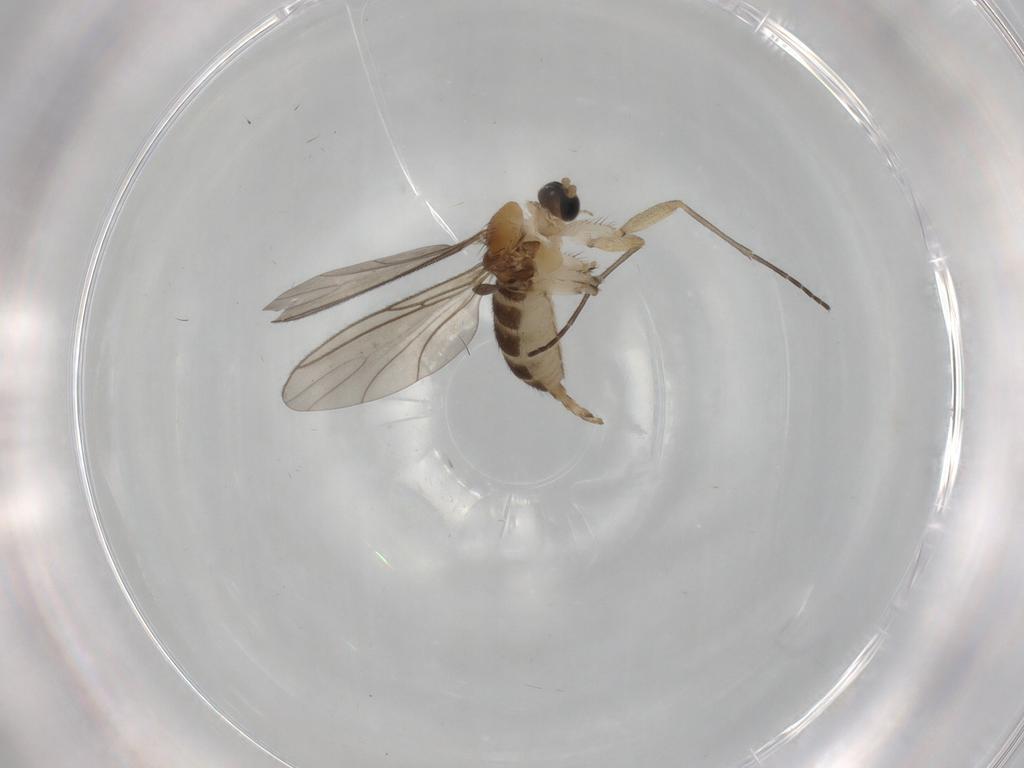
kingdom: Animalia
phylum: Arthropoda
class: Insecta
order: Diptera
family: Sciaridae
